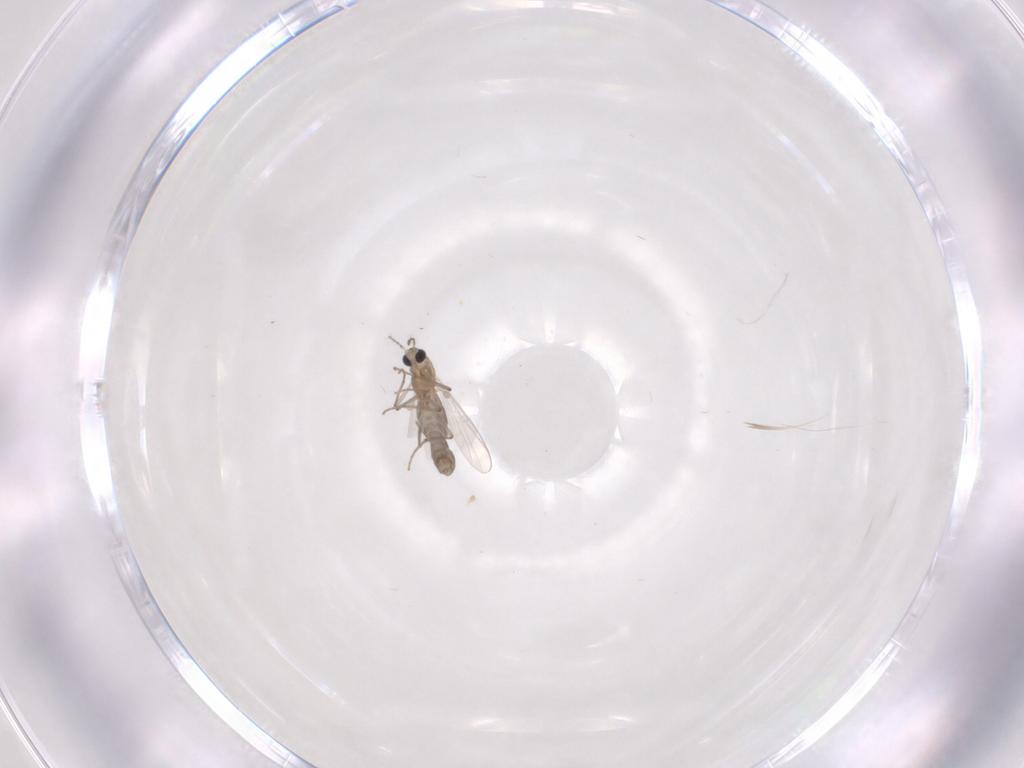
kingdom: Animalia
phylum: Arthropoda
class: Insecta
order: Diptera
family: Chironomidae
